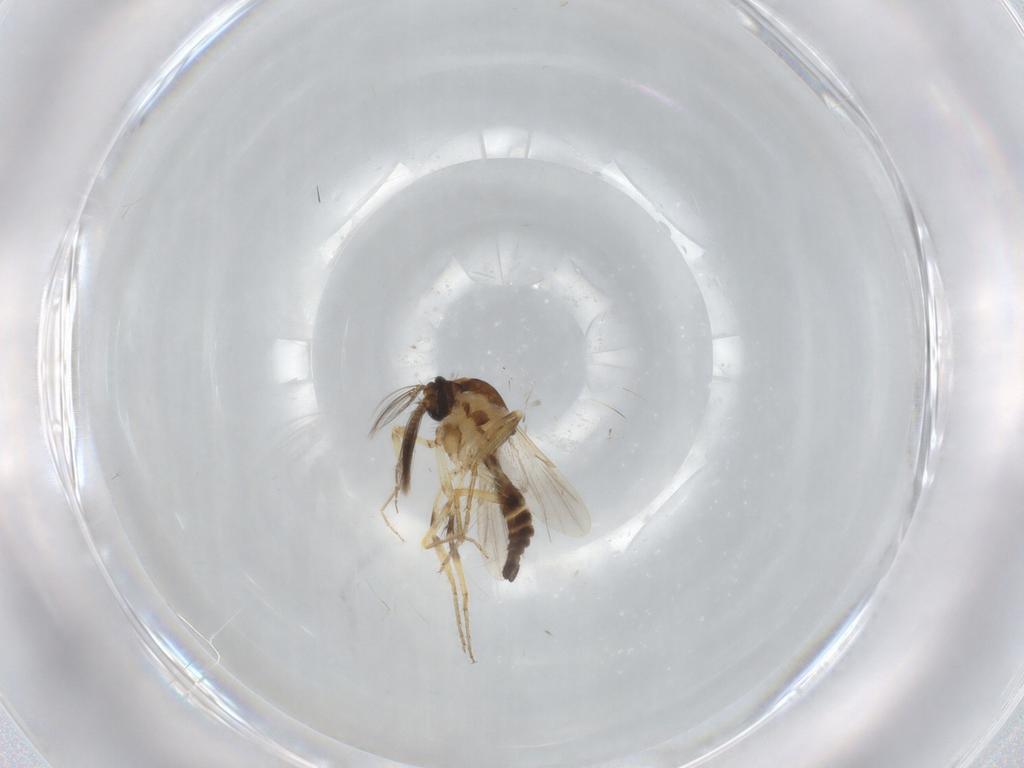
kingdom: Animalia
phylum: Arthropoda
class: Insecta
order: Diptera
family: Ceratopogonidae
